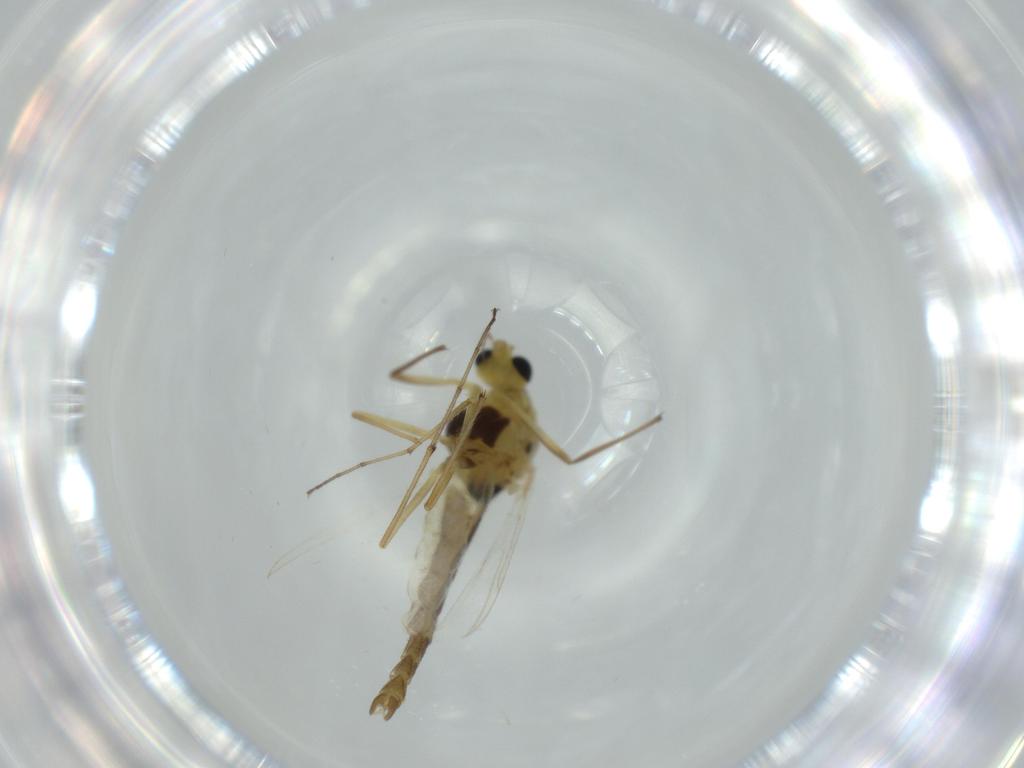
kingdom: Animalia
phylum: Arthropoda
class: Insecta
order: Diptera
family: Chironomidae
